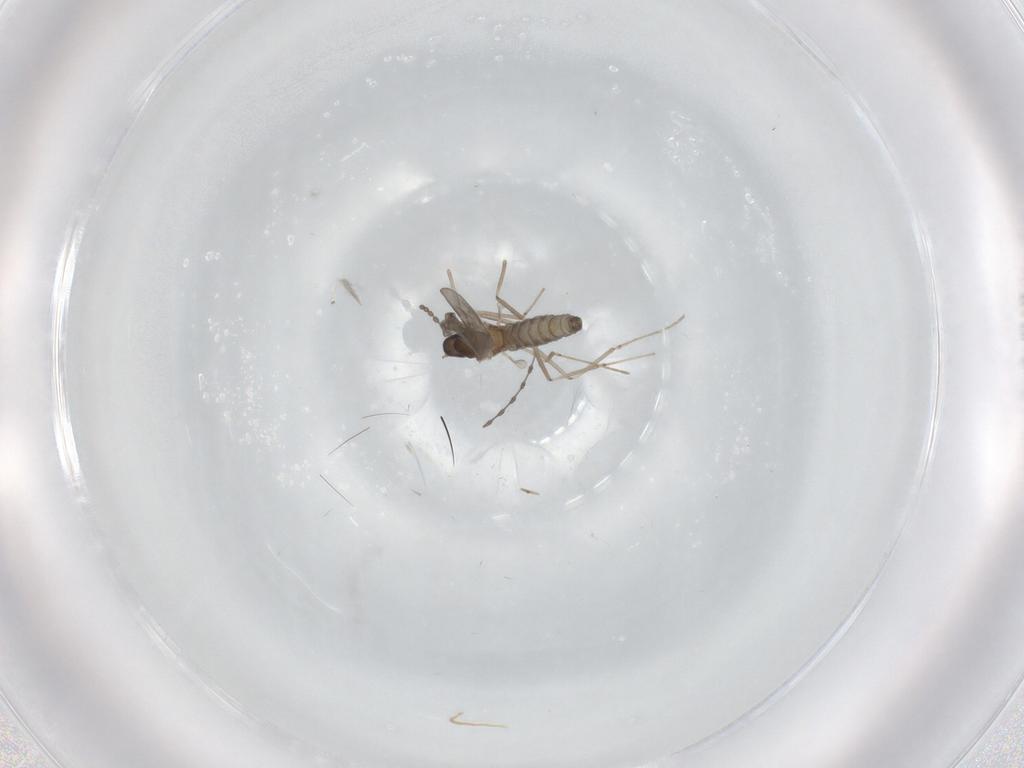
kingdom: Animalia
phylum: Arthropoda
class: Insecta
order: Diptera
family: Cecidomyiidae
